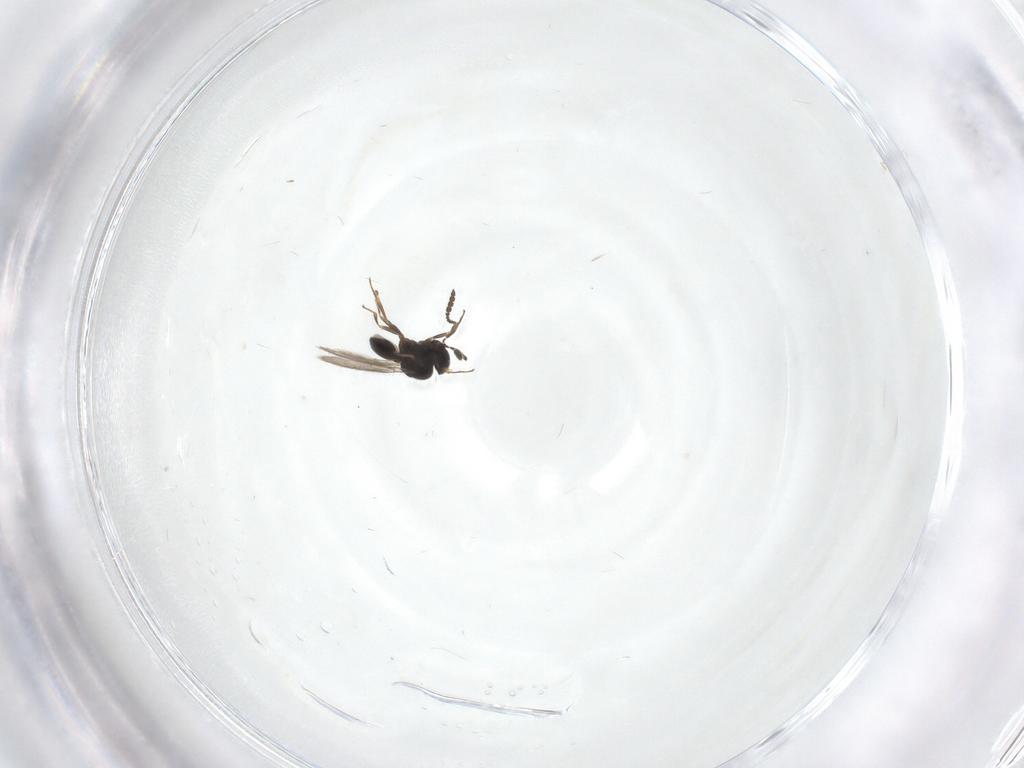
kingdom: Animalia
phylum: Arthropoda
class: Insecta
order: Hymenoptera
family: Scelionidae
